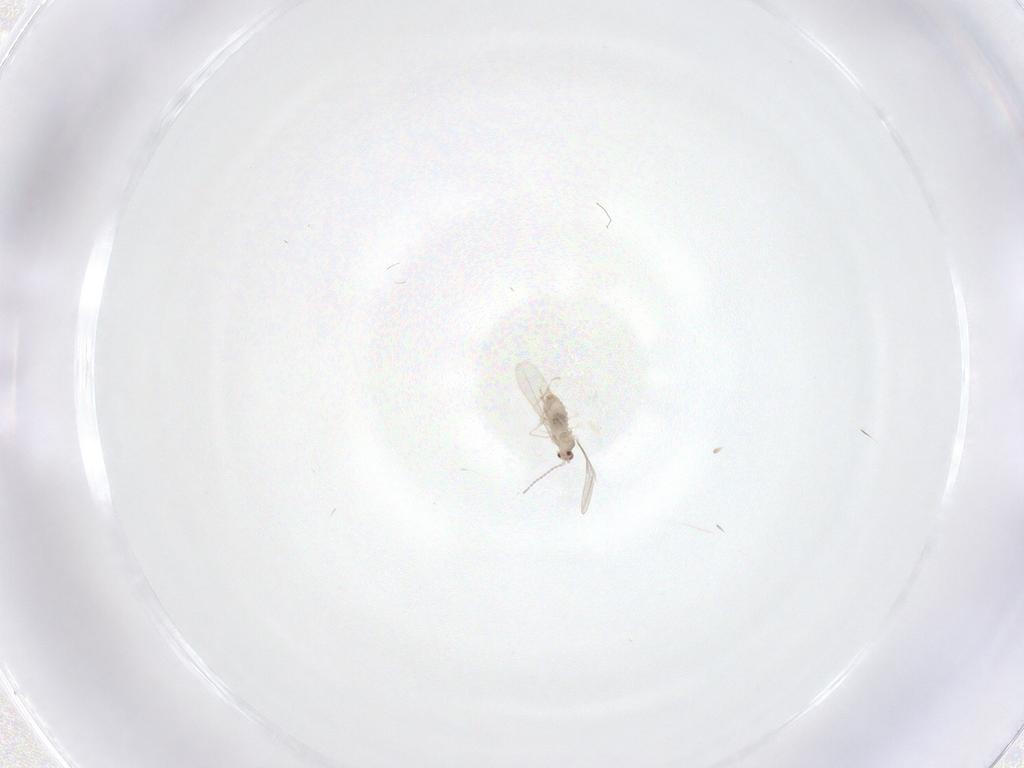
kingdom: Animalia
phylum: Arthropoda
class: Insecta
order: Diptera
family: Cecidomyiidae
